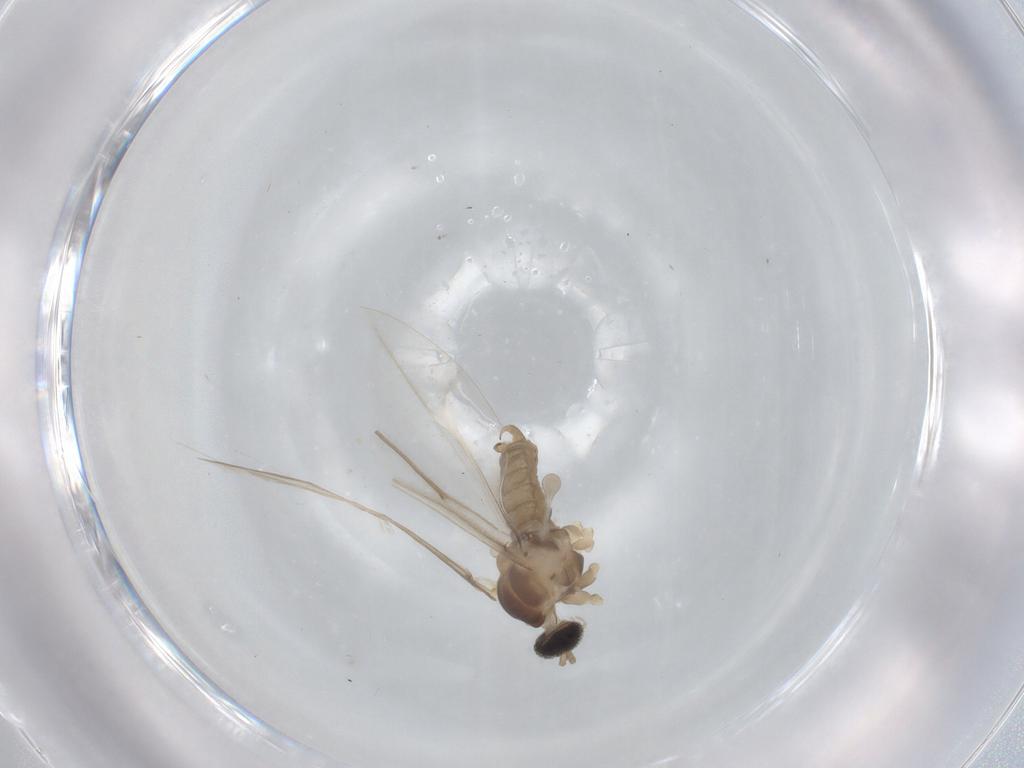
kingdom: Animalia
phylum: Arthropoda
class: Insecta
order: Diptera
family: Cecidomyiidae
